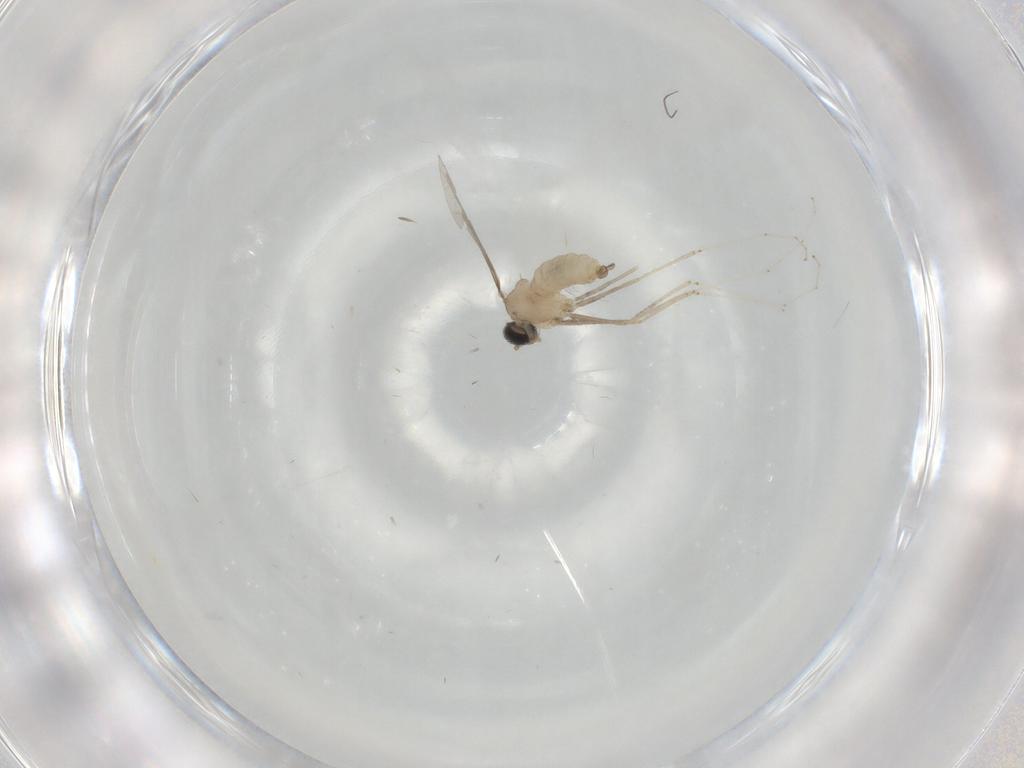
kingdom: Animalia
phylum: Arthropoda
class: Insecta
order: Diptera
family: Cecidomyiidae
